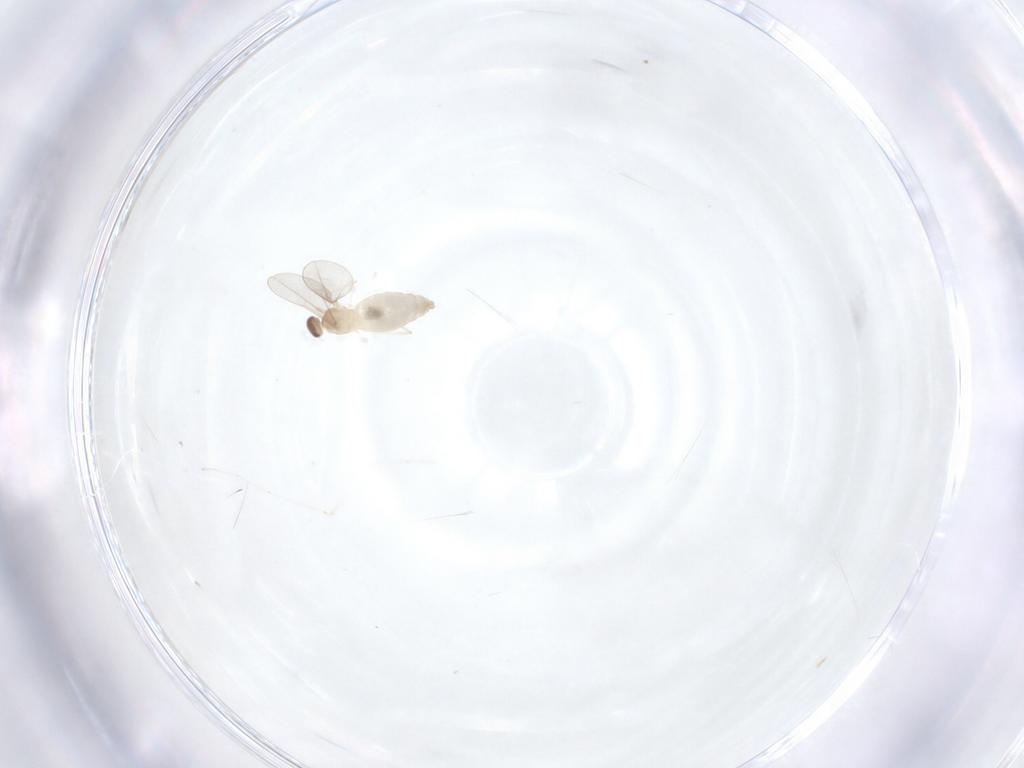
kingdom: Animalia
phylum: Arthropoda
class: Insecta
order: Diptera
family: Cecidomyiidae
